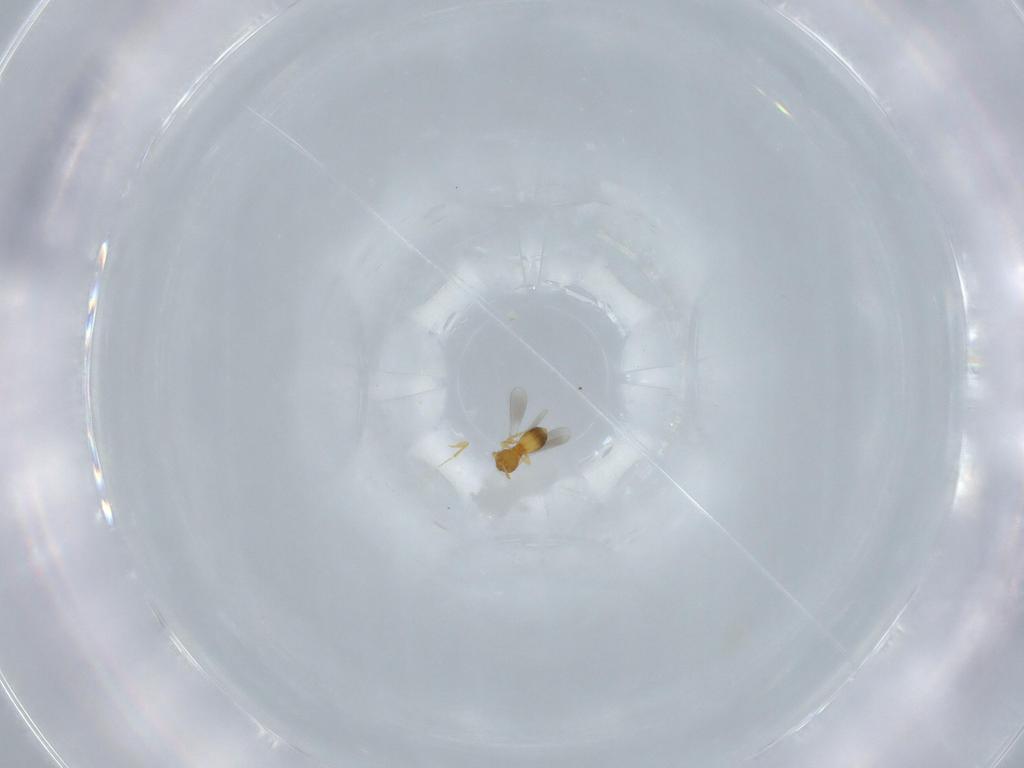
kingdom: Animalia
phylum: Arthropoda
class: Insecta
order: Hymenoptera
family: Platygastridae
